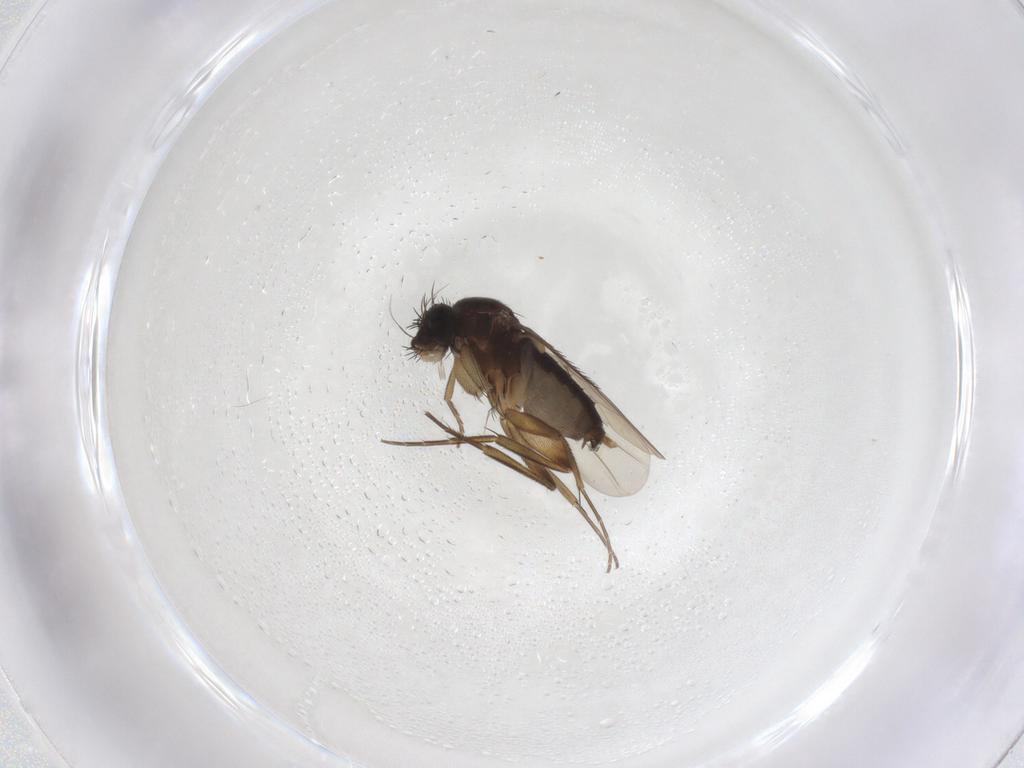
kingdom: Animalia
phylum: Arthropoda
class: Insecta
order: Diptera
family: Phoridae
